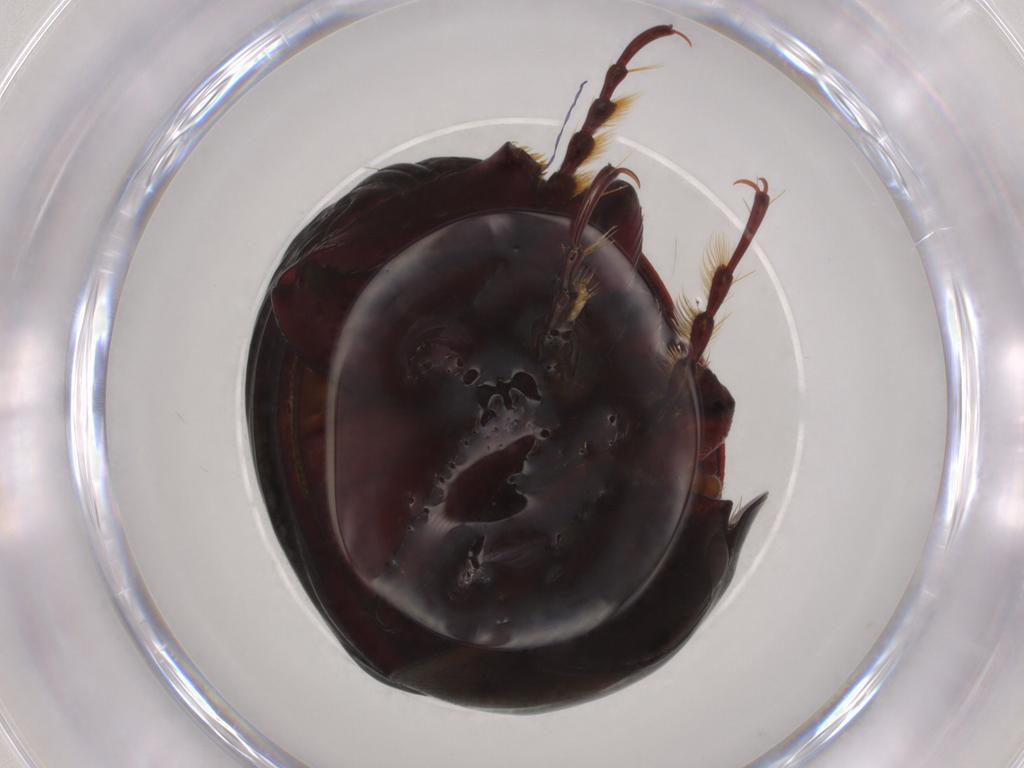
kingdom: Animalia
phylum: Arthropoda
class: Insecta
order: Coleoptera
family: Hybosoridae
